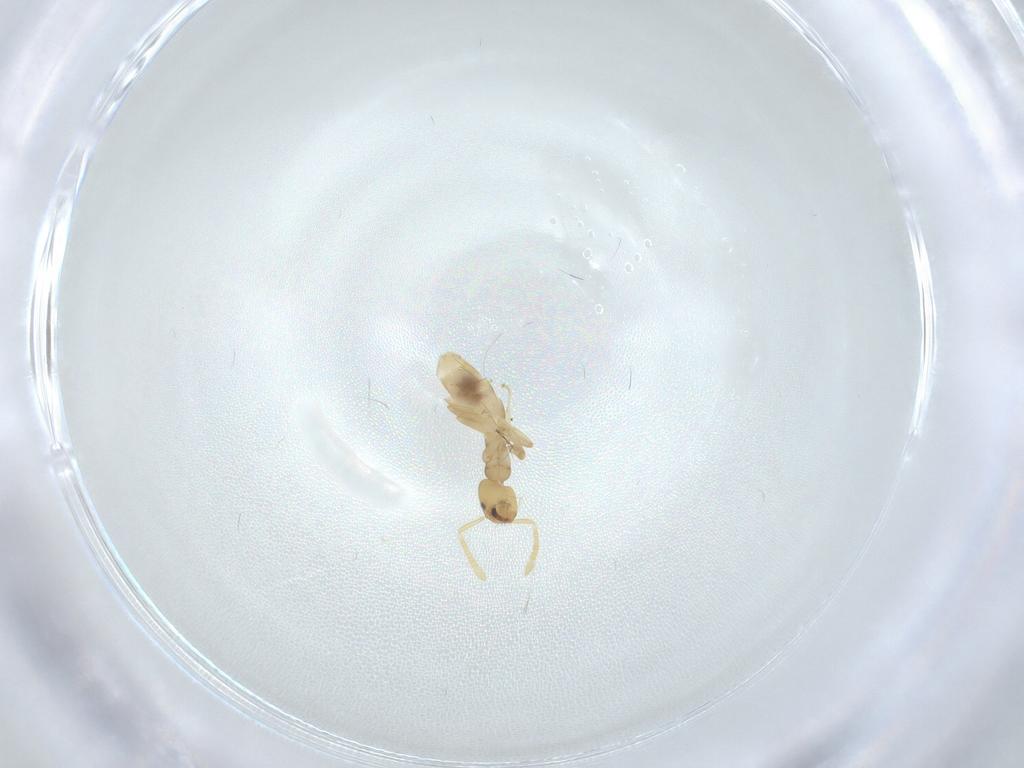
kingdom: Animalia
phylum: Arthropoda
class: Insecta
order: Hymenoptera
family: Formicidae
